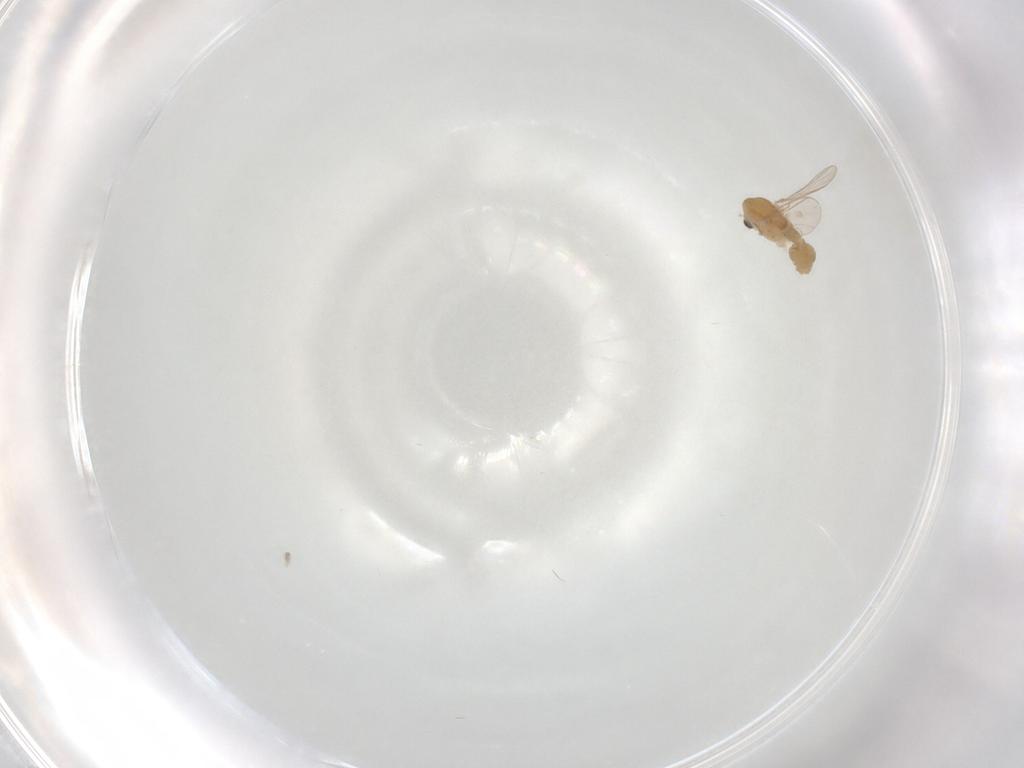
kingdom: Animalia
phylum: Arthropoda
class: Insecta
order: Diptera
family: Chironomidae
